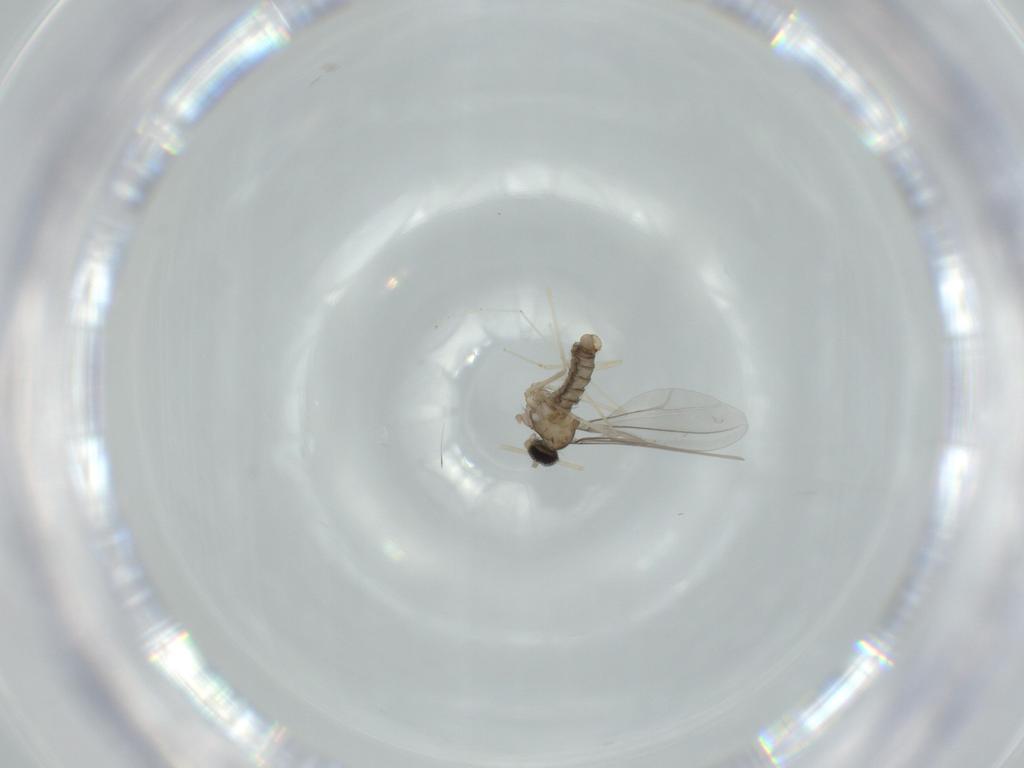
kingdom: Animalia
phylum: Arthropoda
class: Insecta
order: Diptera
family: Cecidomyiidae
